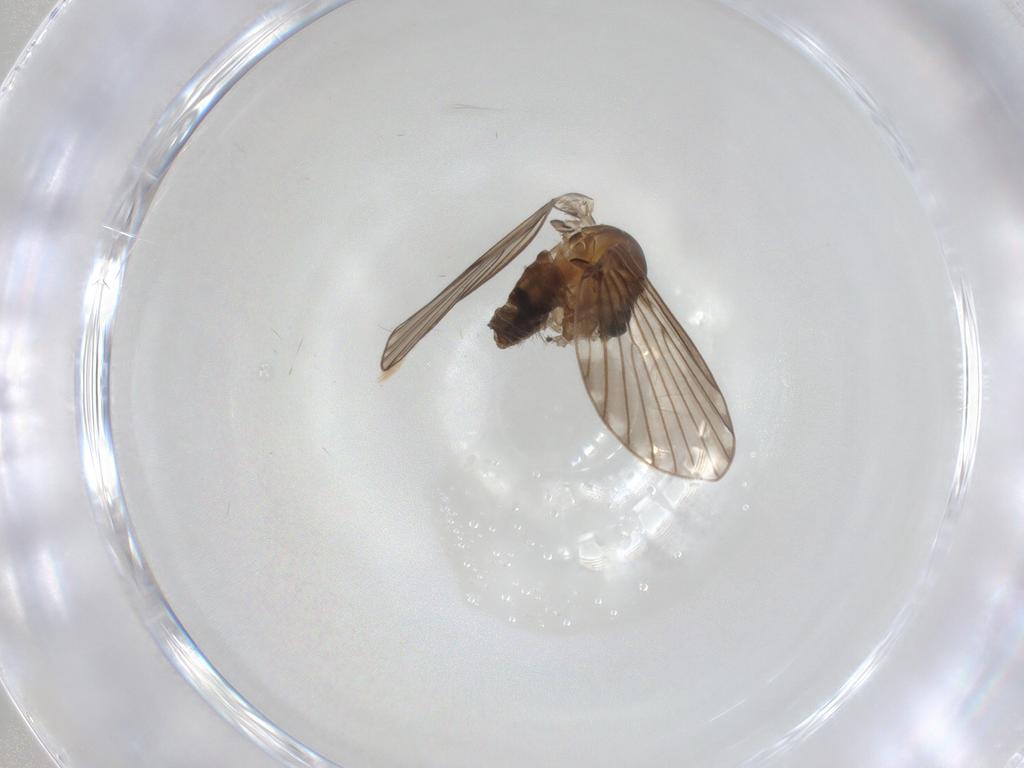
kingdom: Animalia
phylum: Arthropoda
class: Insecta
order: Diptera
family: Psychodidae
